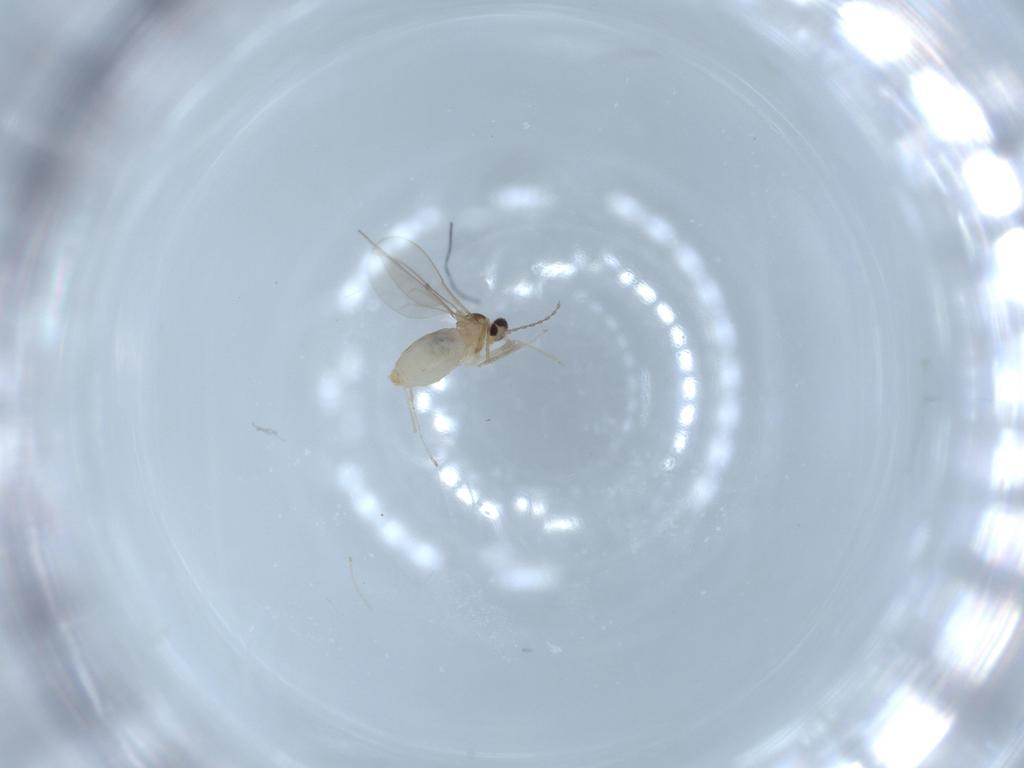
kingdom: Animalia
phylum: Arthropoda
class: Insecta
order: Diptera
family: Cecidomyiidae
